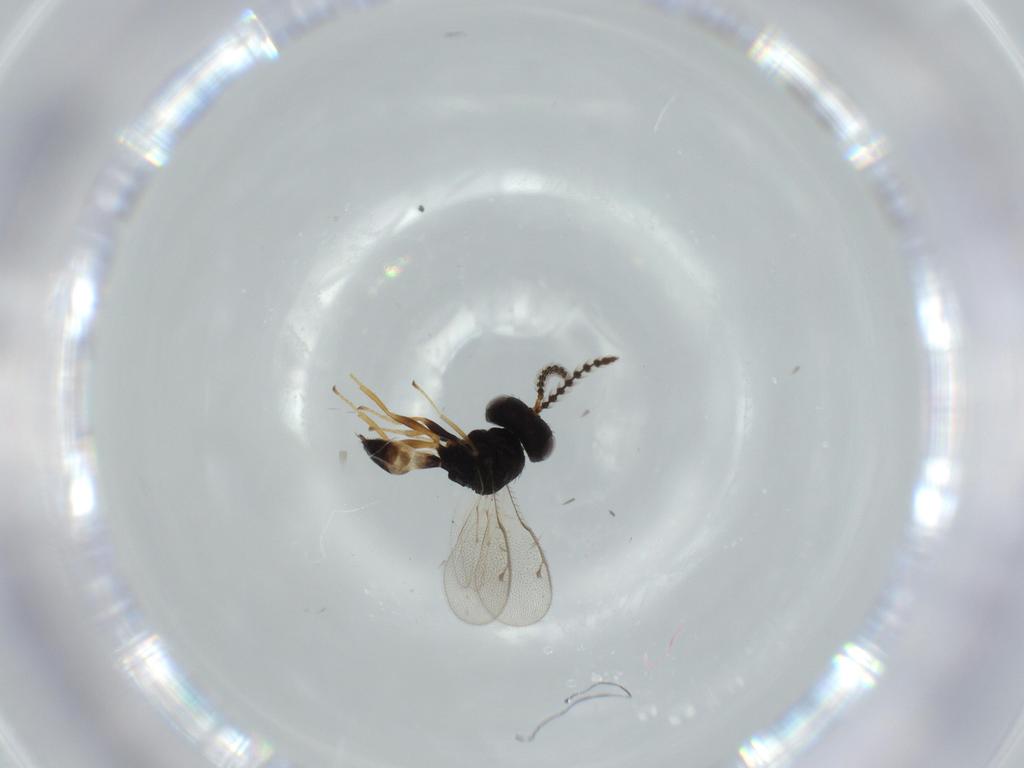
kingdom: Animalia
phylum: Arthropoda
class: Insecta
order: Hymenoptera
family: Pteromalidae
